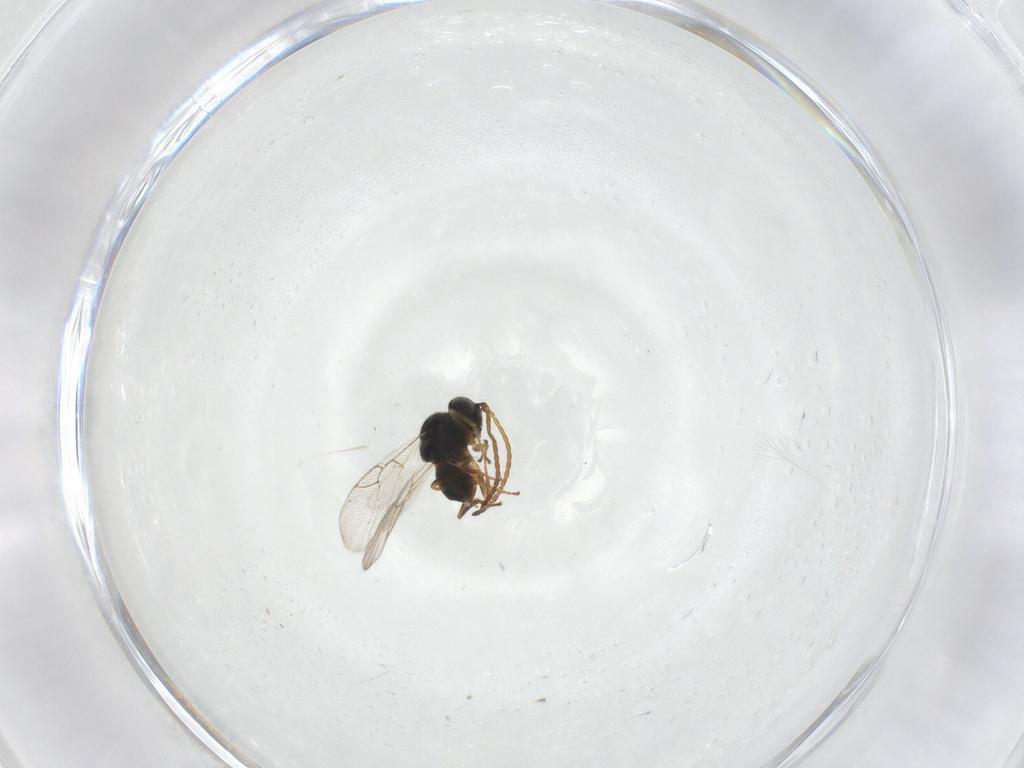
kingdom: Animalia
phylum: Arthropoda
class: Insecta
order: Hymenoptera
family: Cynipidae
